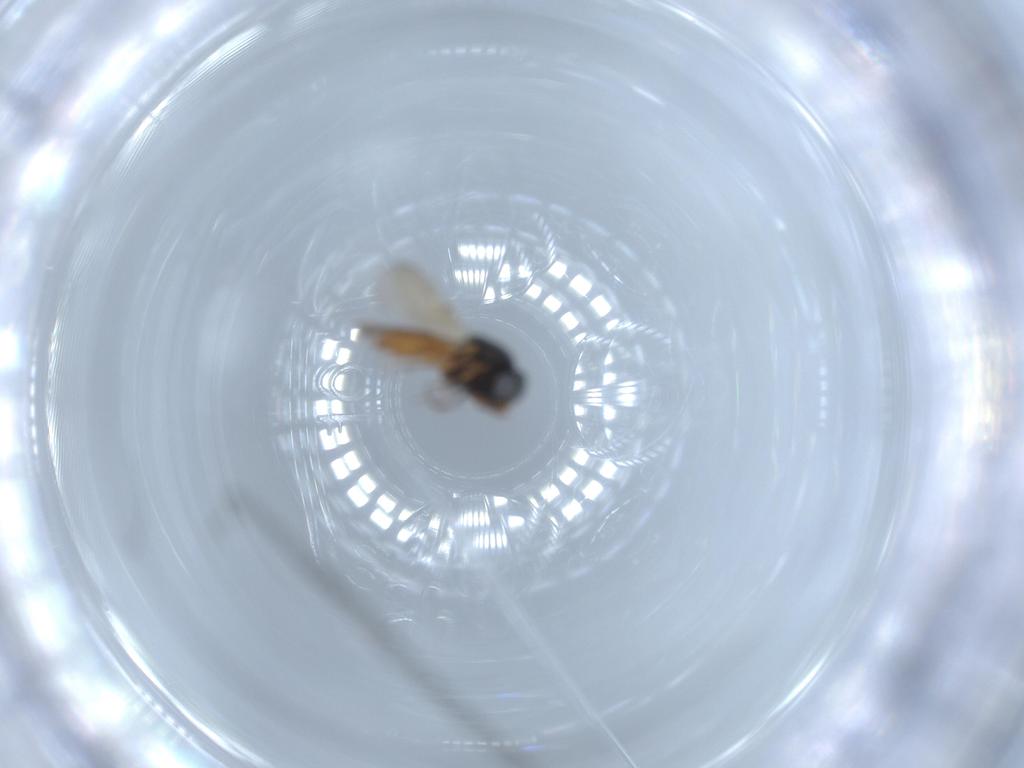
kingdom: Animalia
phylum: Arthropoda
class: Insecta
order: Hymenoptera
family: Scelionidae
